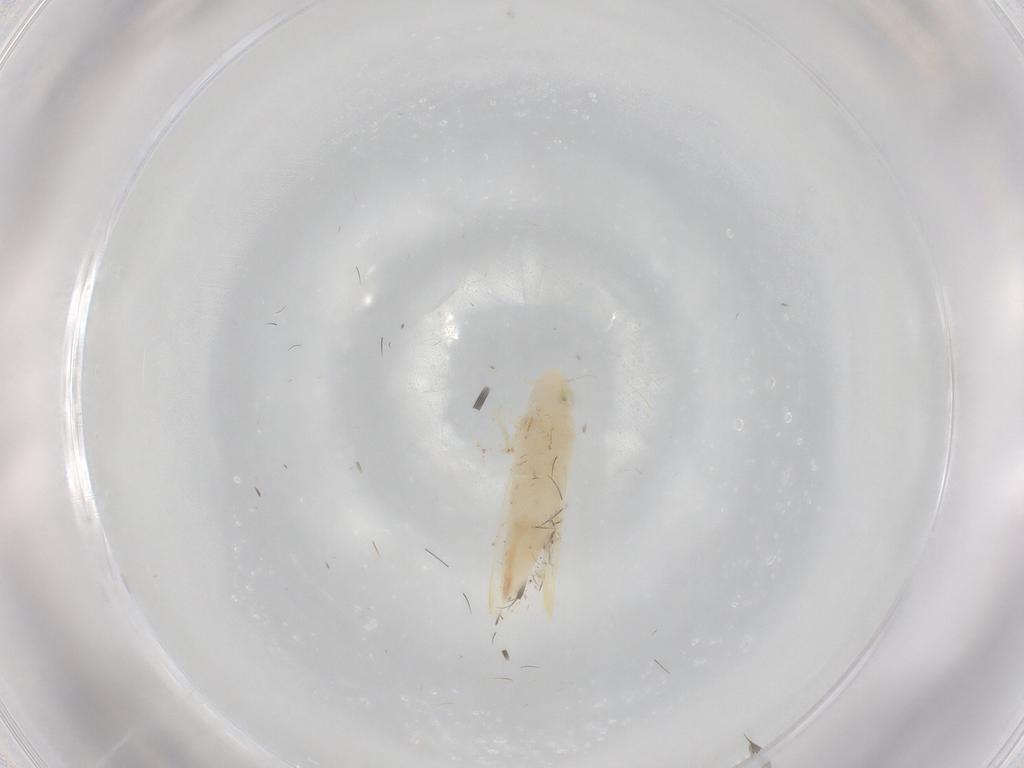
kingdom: Animalia
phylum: Arthropoda
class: Insecta
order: Hemiptera
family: Cicadellidae
